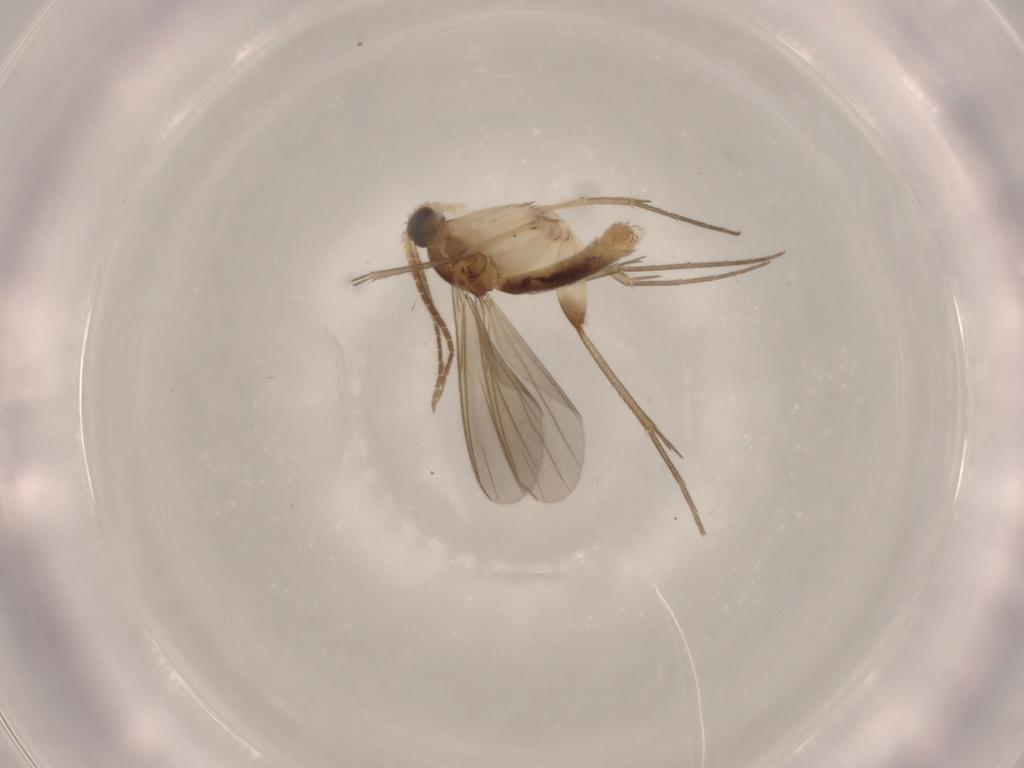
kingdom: Animalia
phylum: Arthropoda
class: Insecta
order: Diptera
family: Mycetophilidae
